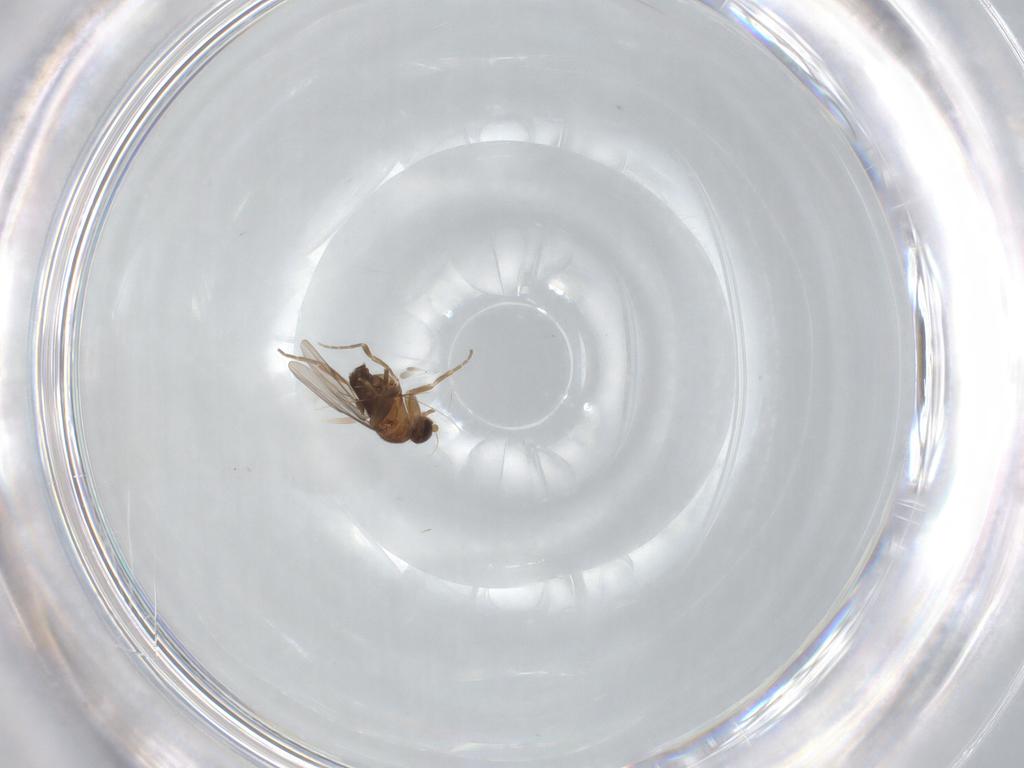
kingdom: Animalia
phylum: Arthropoda
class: Insecta
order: Diptera
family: Phoridae
